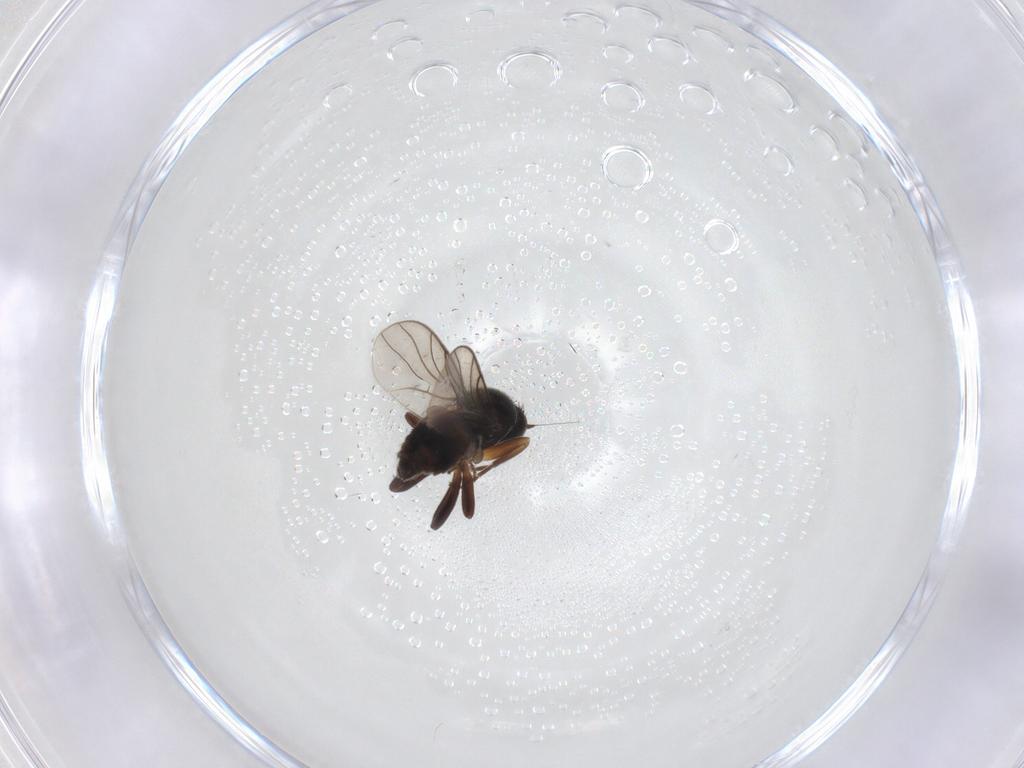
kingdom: Animalia
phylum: Arthropoda
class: Insecta
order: Diptera
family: Hybotidae
